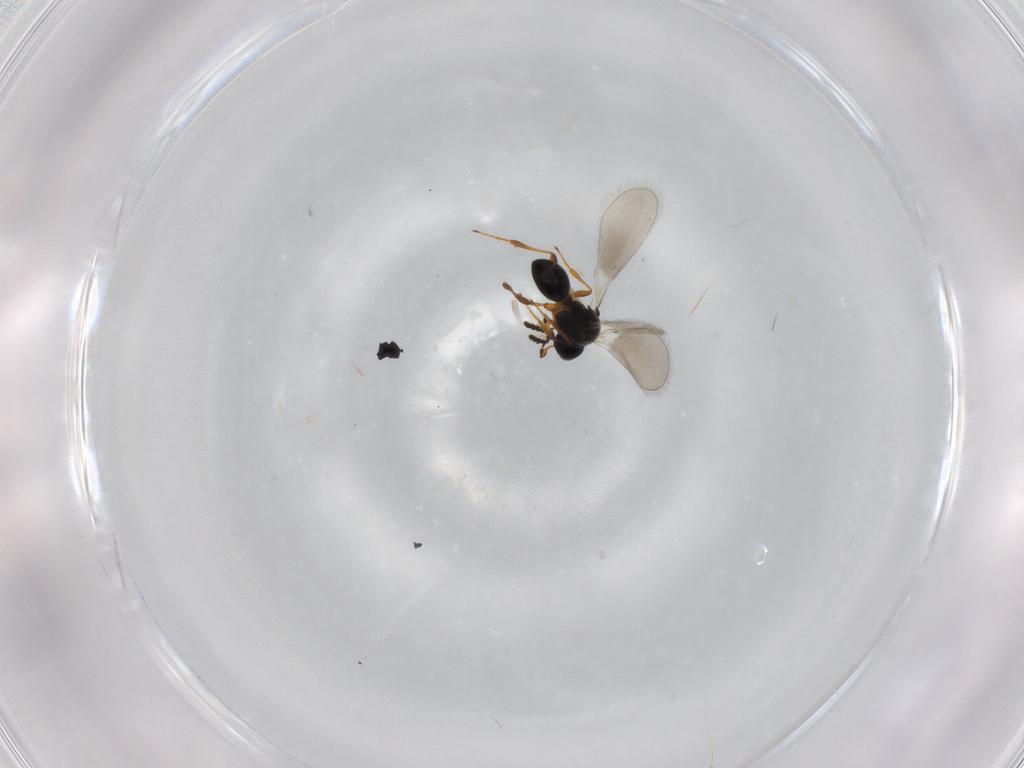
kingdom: Animalia
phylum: Arthropoda
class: Insecta
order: Hymenoptera
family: Platygastridae
